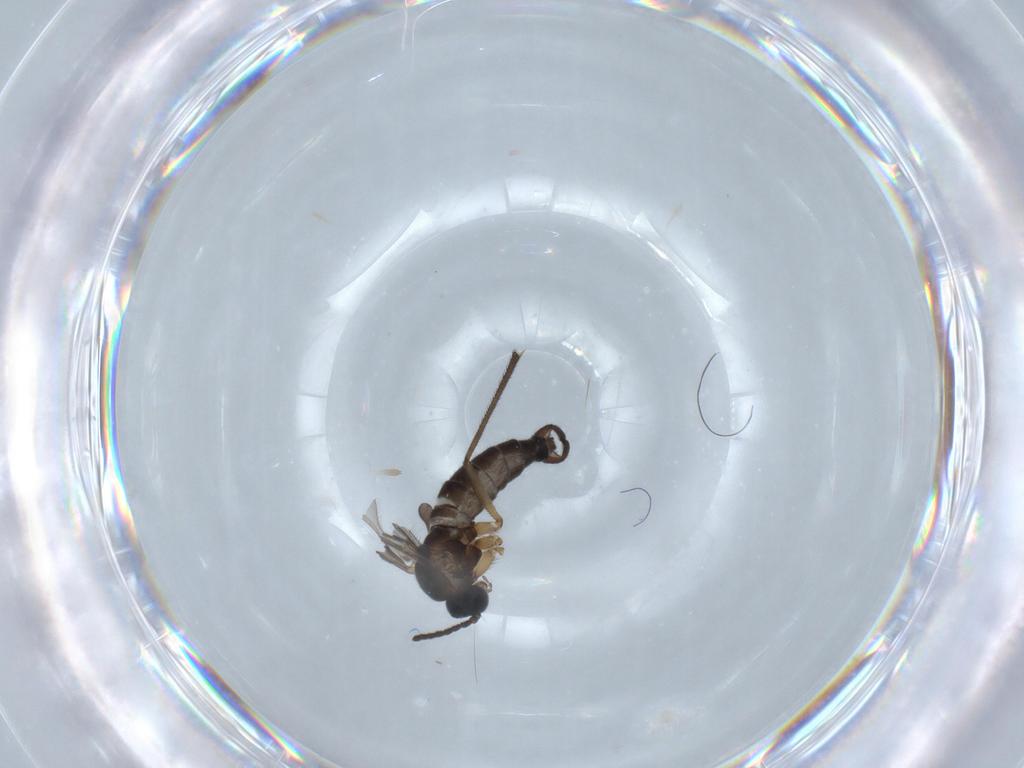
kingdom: Animalia
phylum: Arthropoda
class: Insecta
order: Diptera
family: Sciaridae
